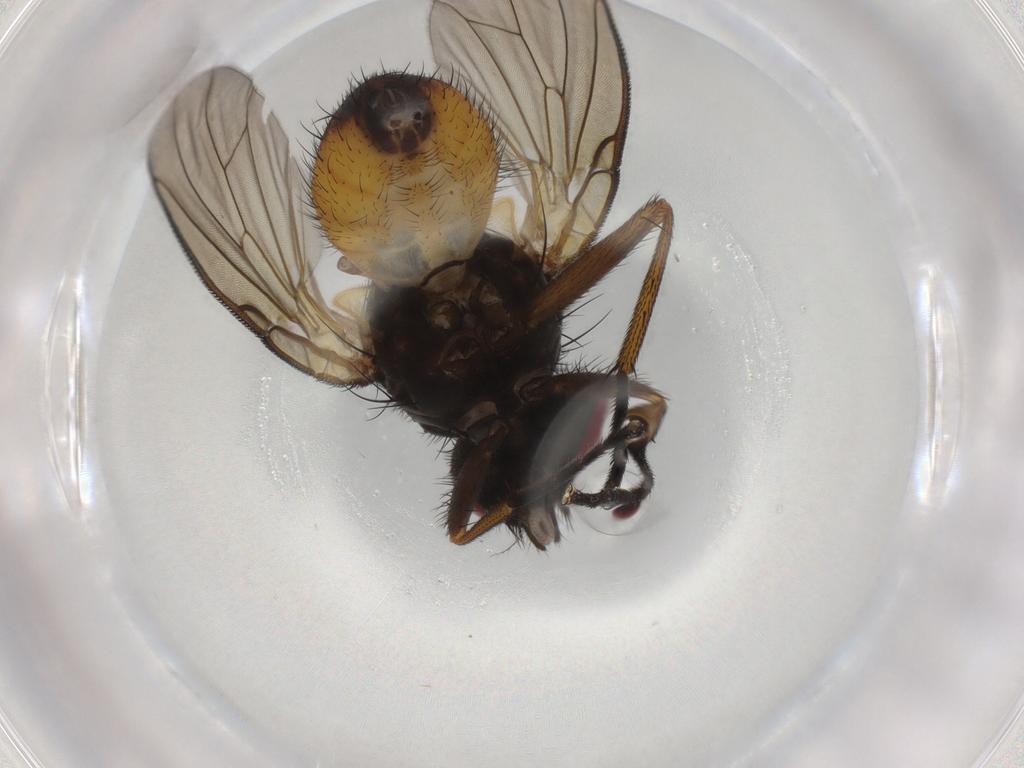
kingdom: Animalia
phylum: Arthropoda
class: Insecta
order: Diptera
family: Muscidae
